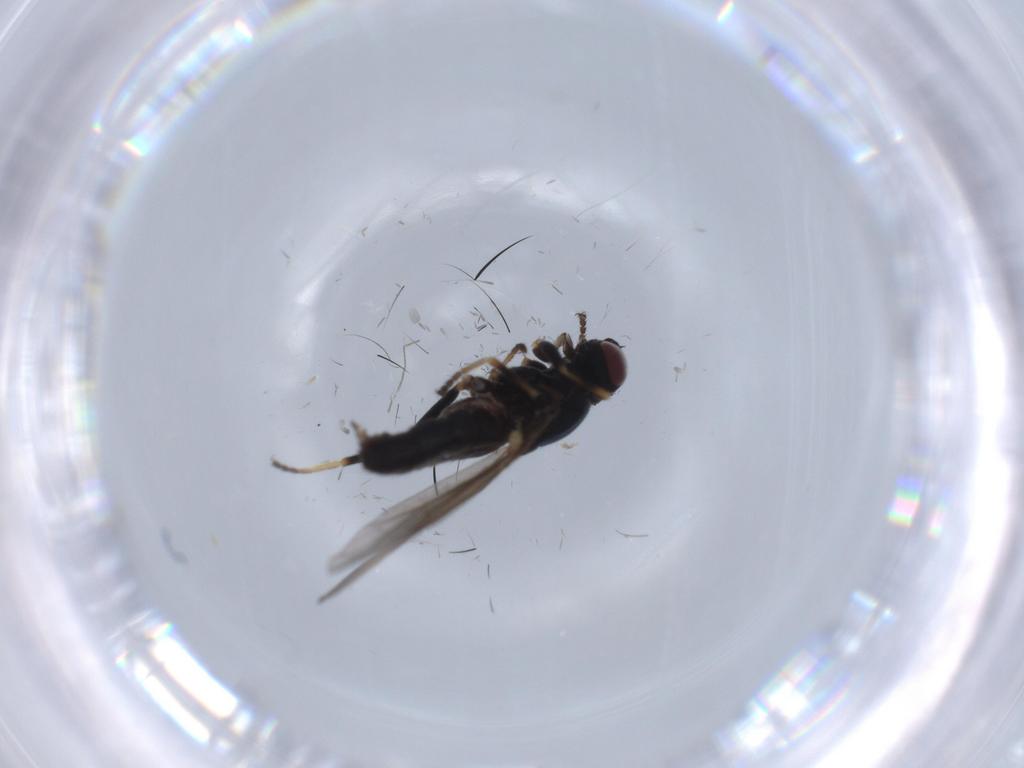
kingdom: Animalia
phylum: Arthropoda
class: Insecta
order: Diptera
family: Chloropidae
